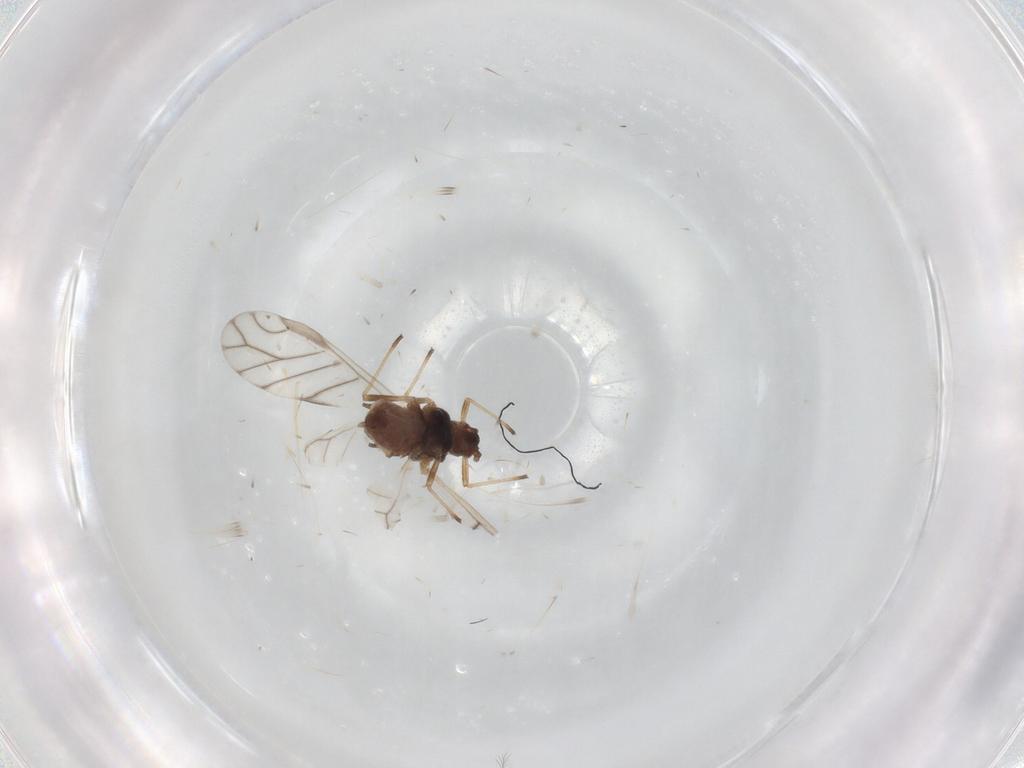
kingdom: Animalia
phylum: Arthropoda
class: Insecta
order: Hemiptera
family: Aphididae
